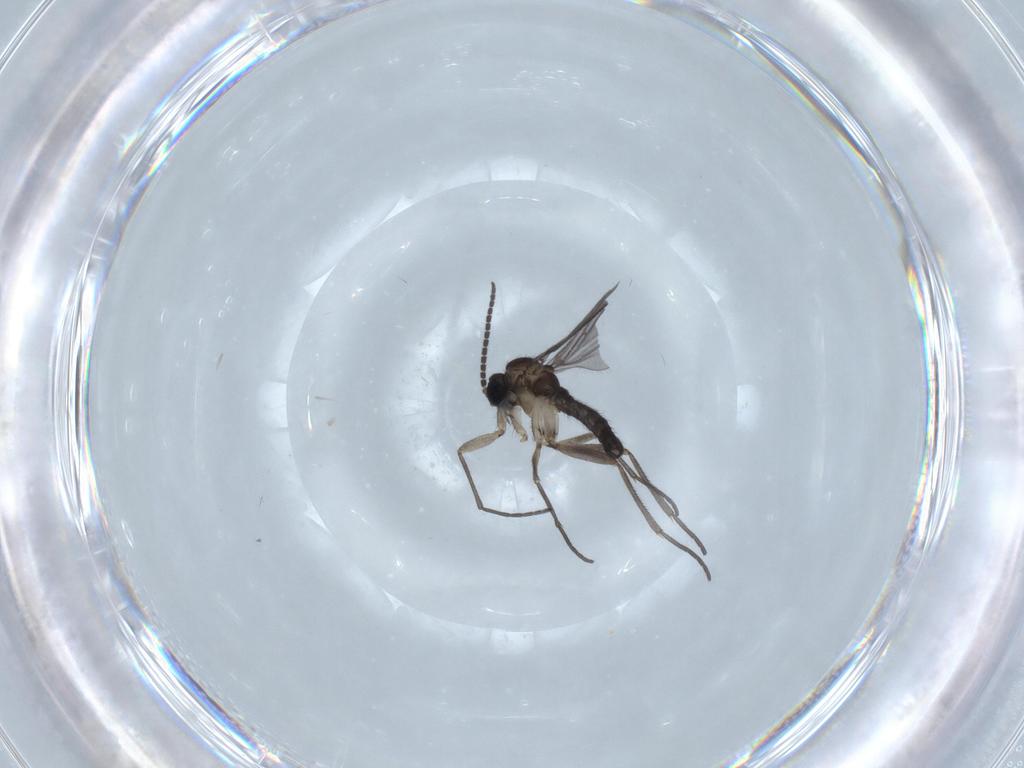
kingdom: Animalia
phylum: Arthropoda
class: Insecta
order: Diptera
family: Sciaridae
